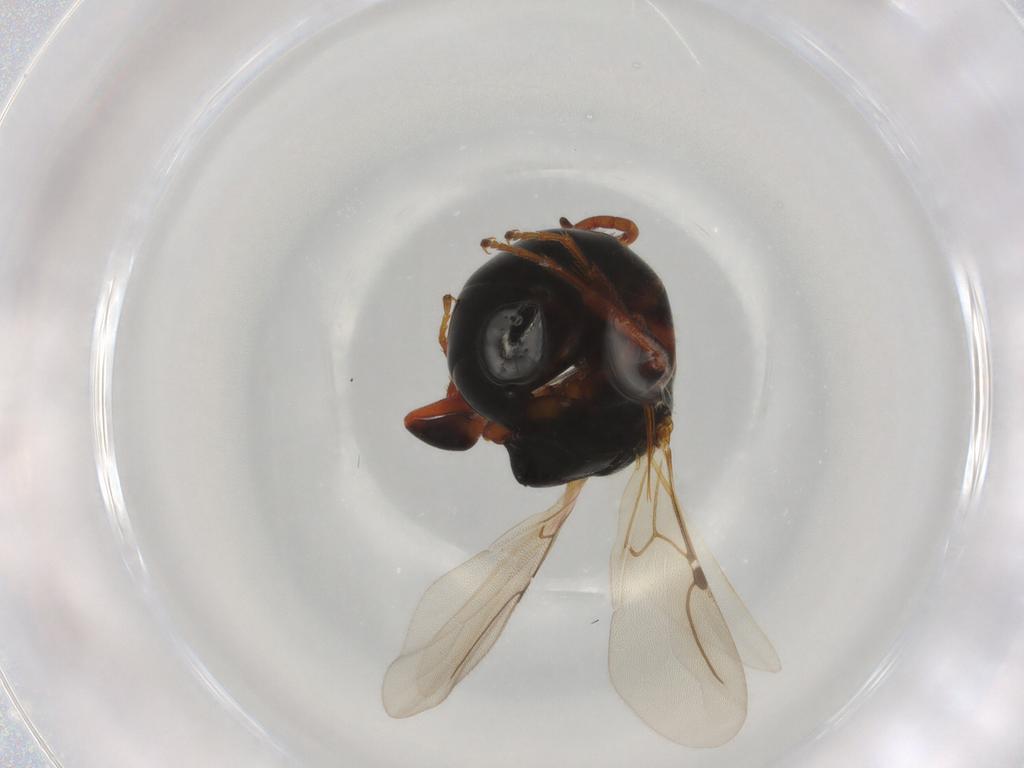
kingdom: Animalia
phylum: Arthropoda
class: Insecta
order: Hymenoptera
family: Bethylidae
